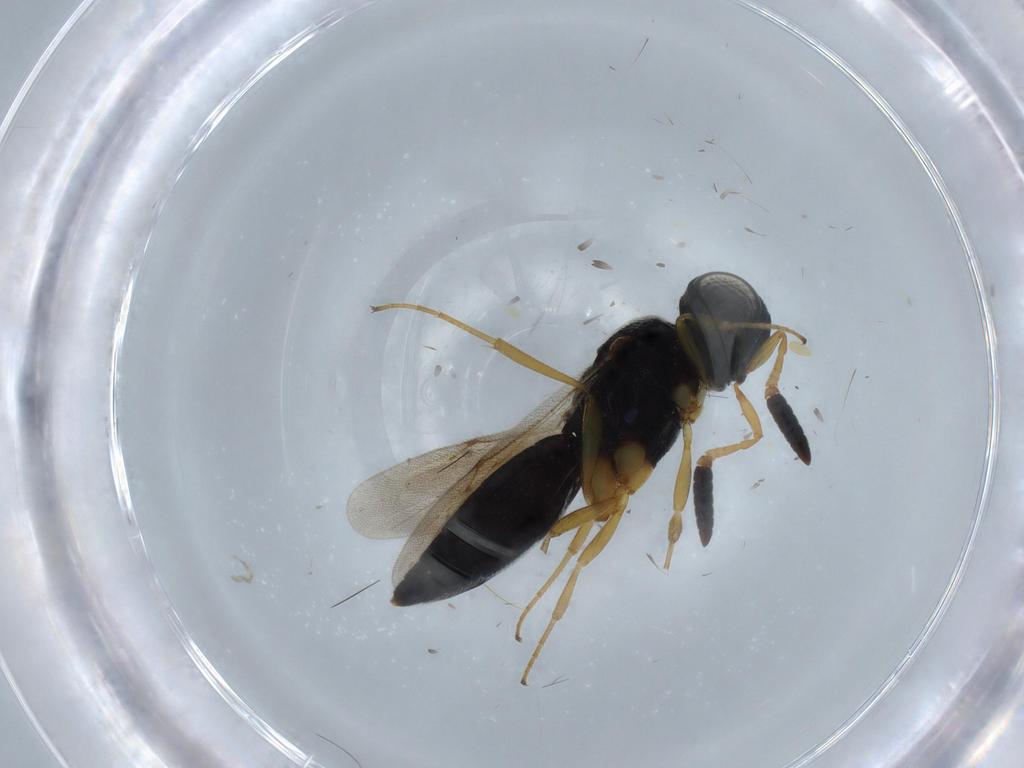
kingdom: Animalia
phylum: Arthropoda
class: Insecta
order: Hymenoptera
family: Scelionidae
